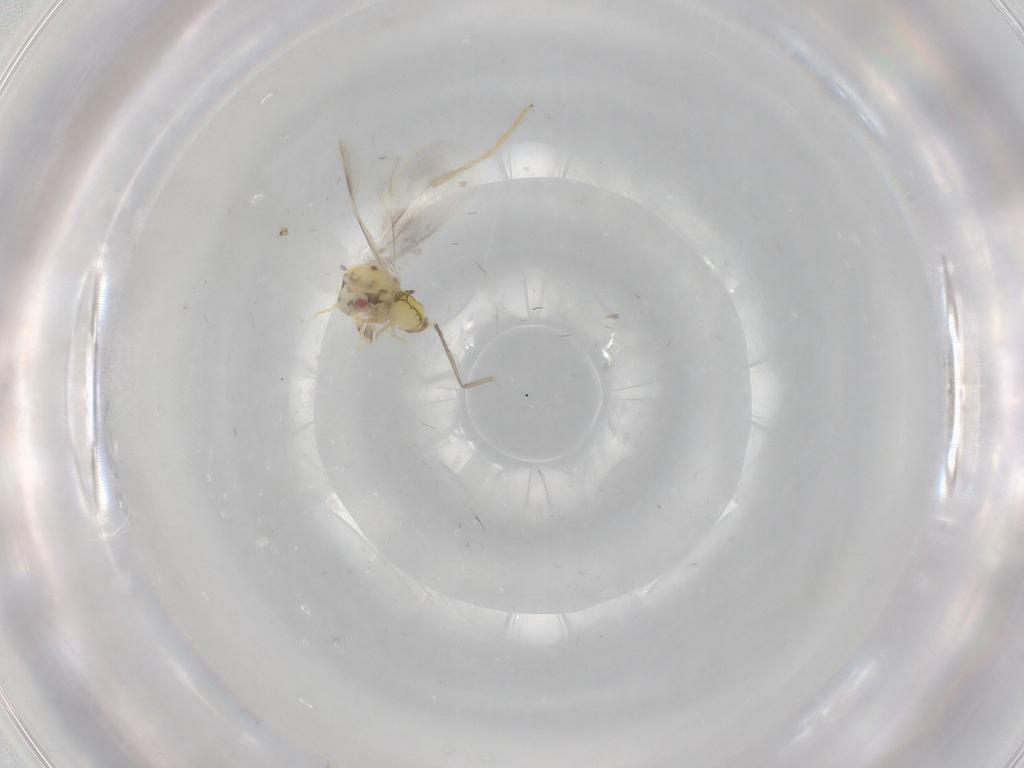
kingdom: Animalia
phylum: Arthropoda
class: Insecta
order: Hemiptera
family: Aleyrodidae
